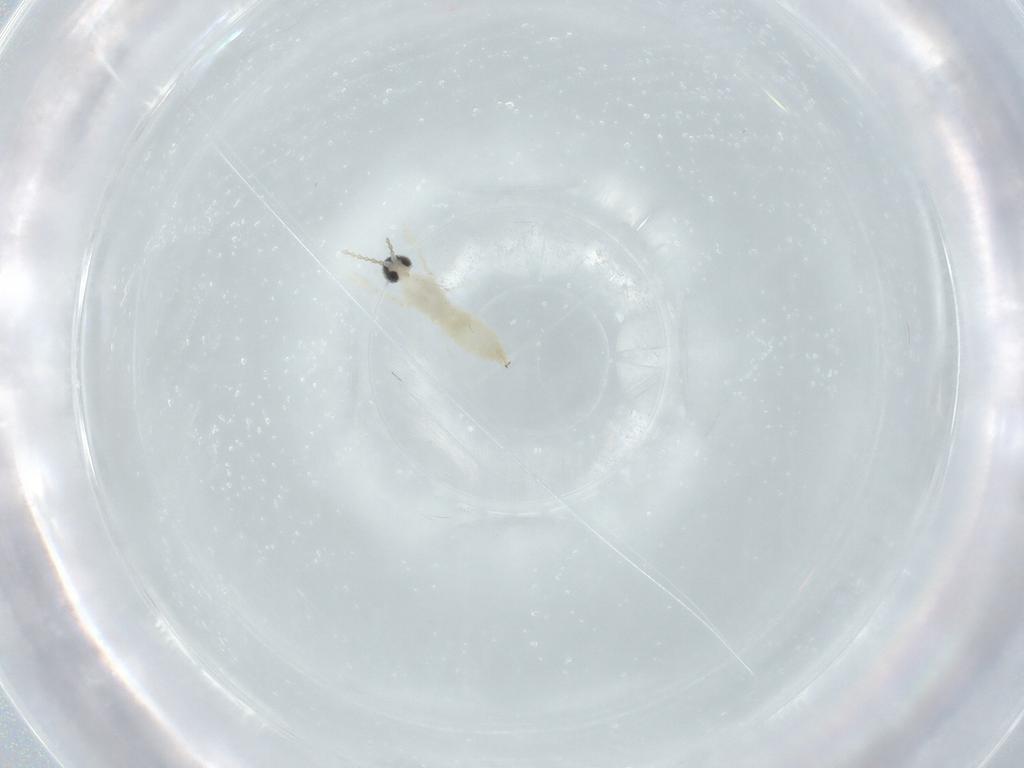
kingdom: Animalia
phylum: Arthropoda
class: Insecta
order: Diptera
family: Cecidomyiidae
